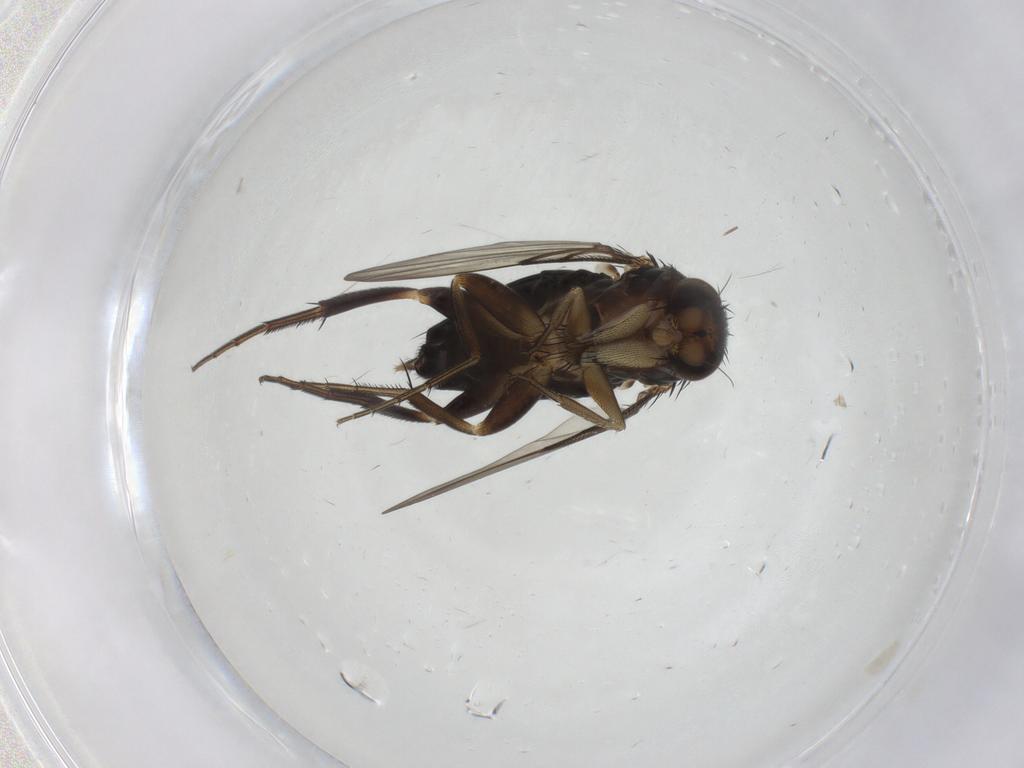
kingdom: Animalia
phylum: Arthropoda
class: Insecta
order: Diptera
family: Phoridae
